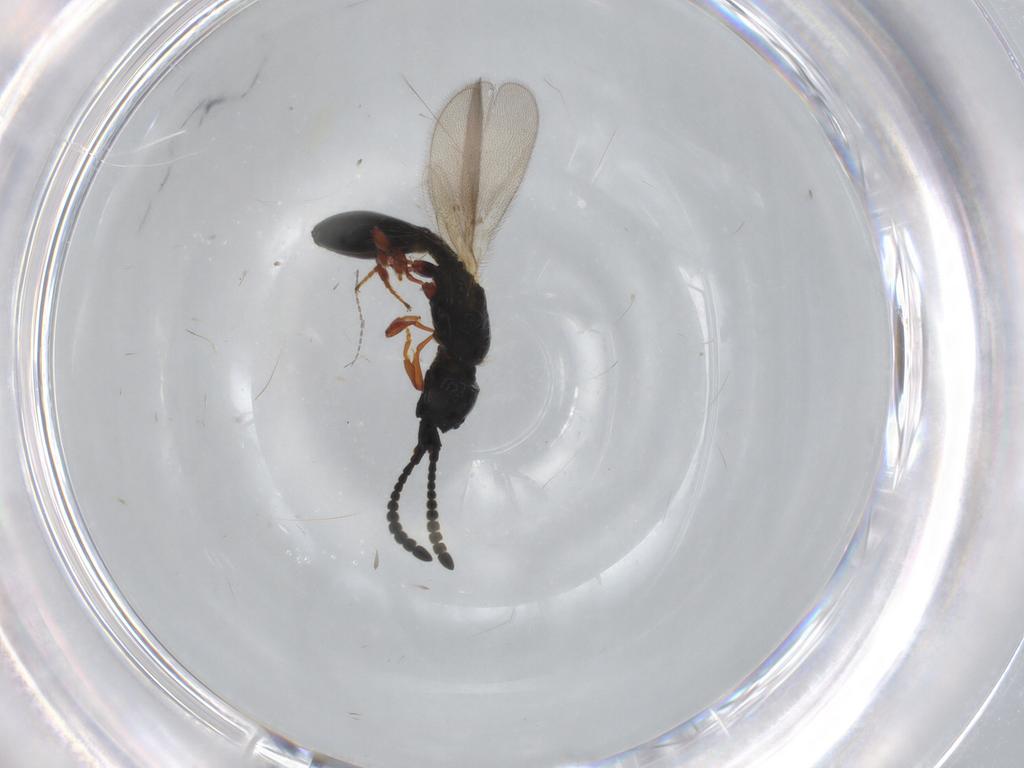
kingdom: Animalia
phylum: Arthropoda
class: Insecta
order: Hymenoptera
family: Diapriidae
